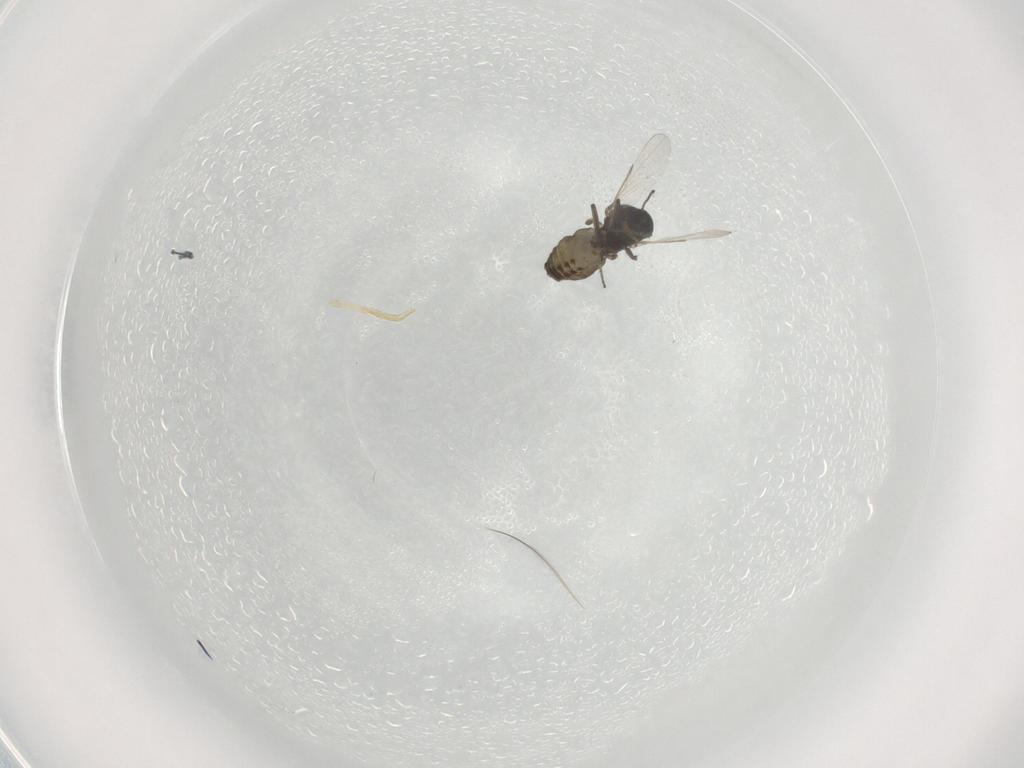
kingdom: Animalia
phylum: Arthropoda
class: Insecta
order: Diptera
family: Ceratopogonidae
